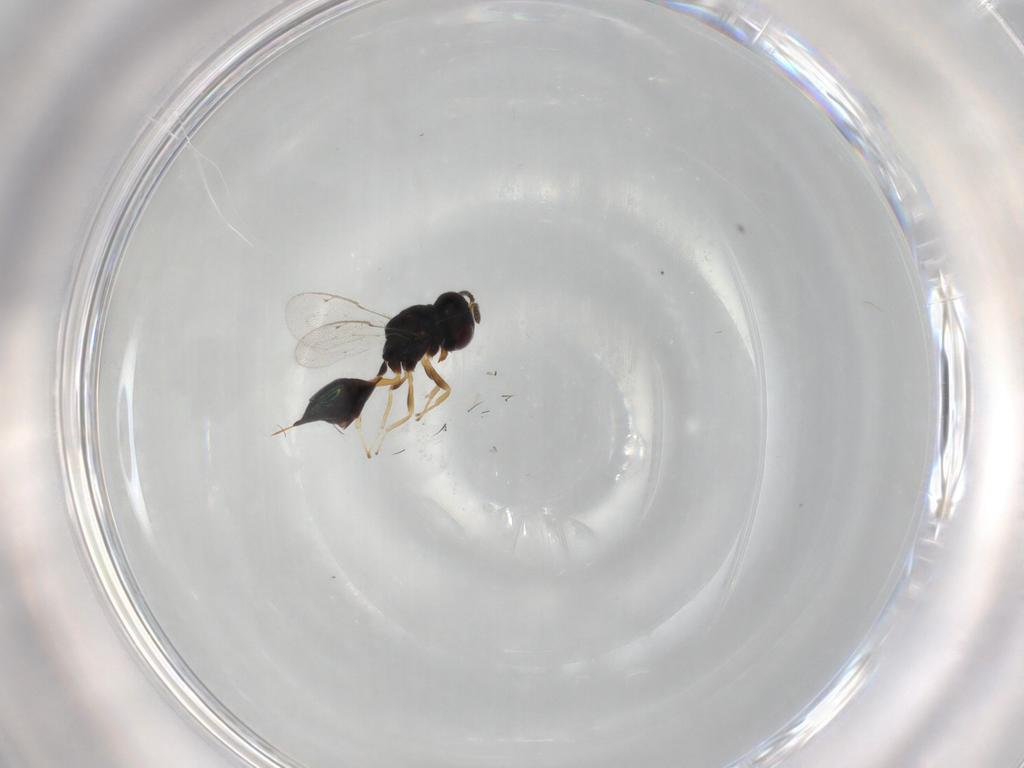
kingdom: Animalia
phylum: Arthropoda
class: Insecta
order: Hymenoptera
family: Pteromalidae
